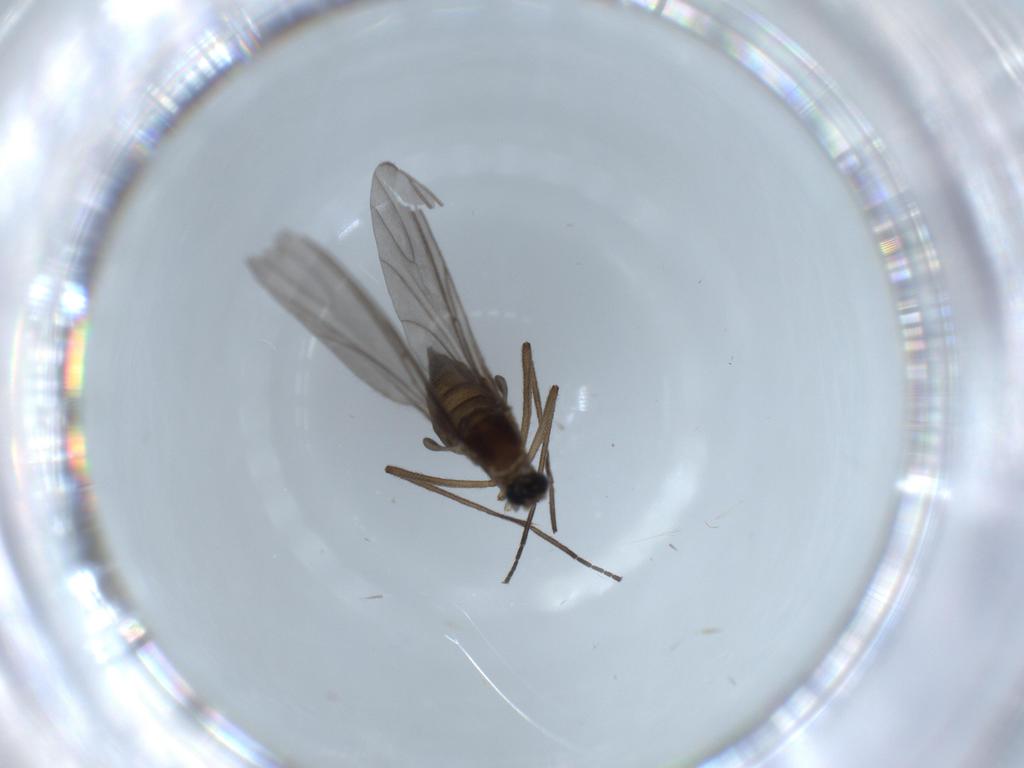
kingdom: Animalia
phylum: Arthropoda
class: Insecta
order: Diptera
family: Sciaridae
